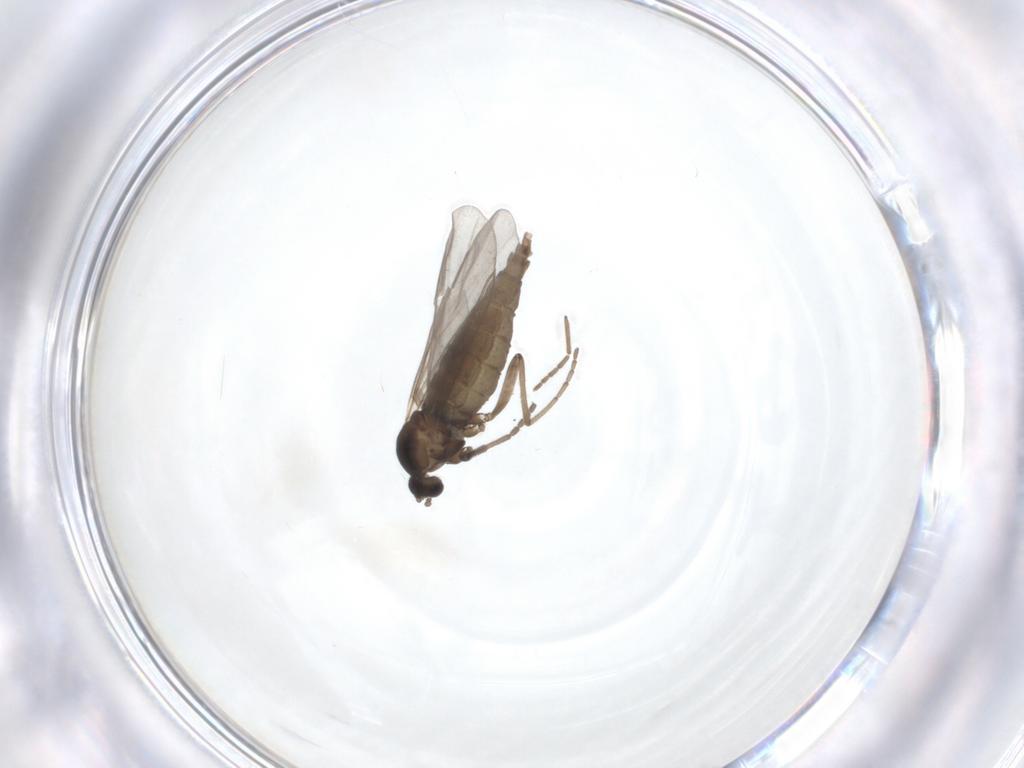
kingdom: Animalia
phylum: Arthropoda
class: Insecta
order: Diptera
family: Cecidomyiidae
